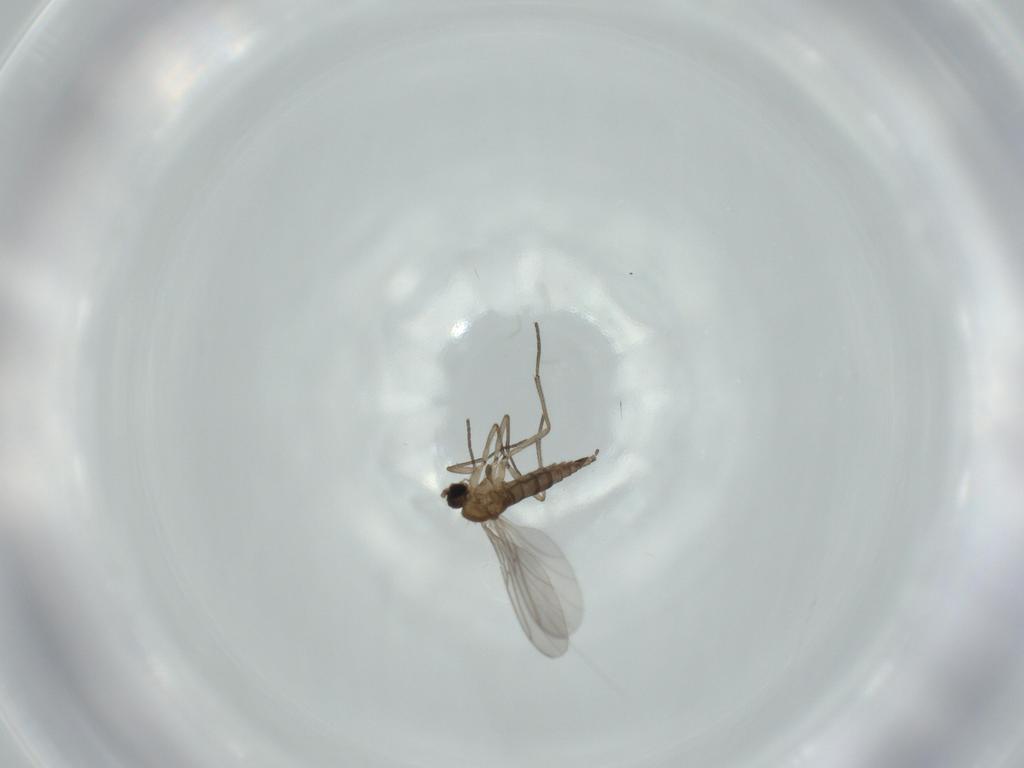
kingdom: Animalia
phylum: Arthropoda
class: Insecta
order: Diptera
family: Sciaridae
